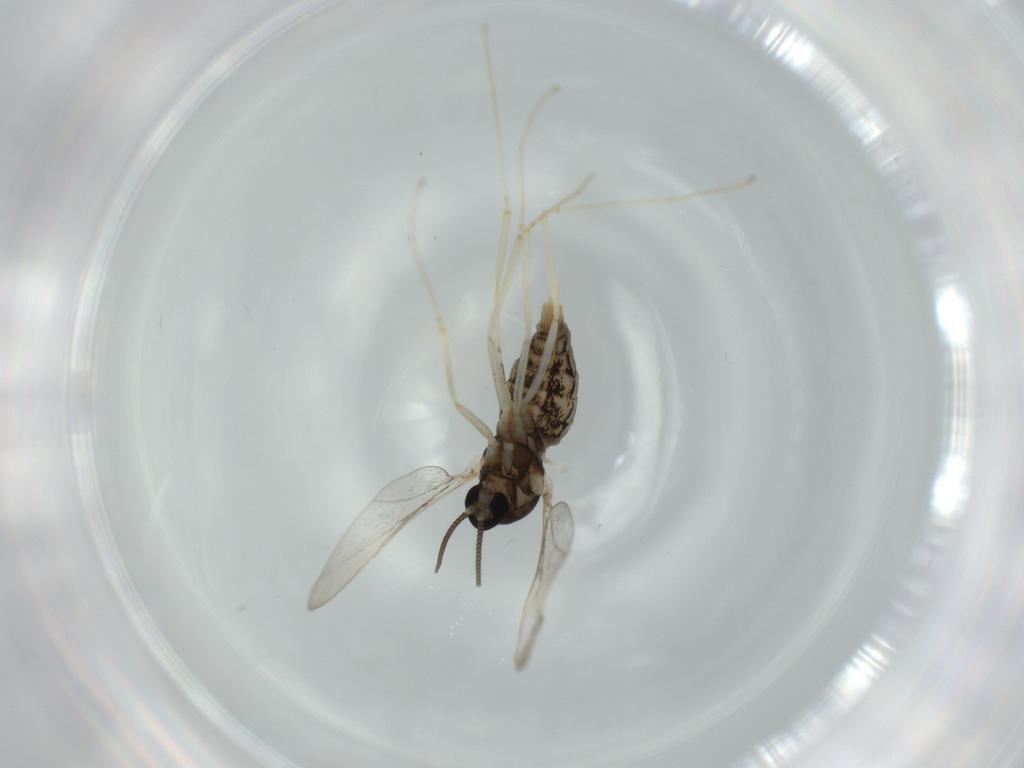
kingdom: Animalia
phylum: Arthropoda
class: Insecta
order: Diptera
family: Cecidomyiidae
